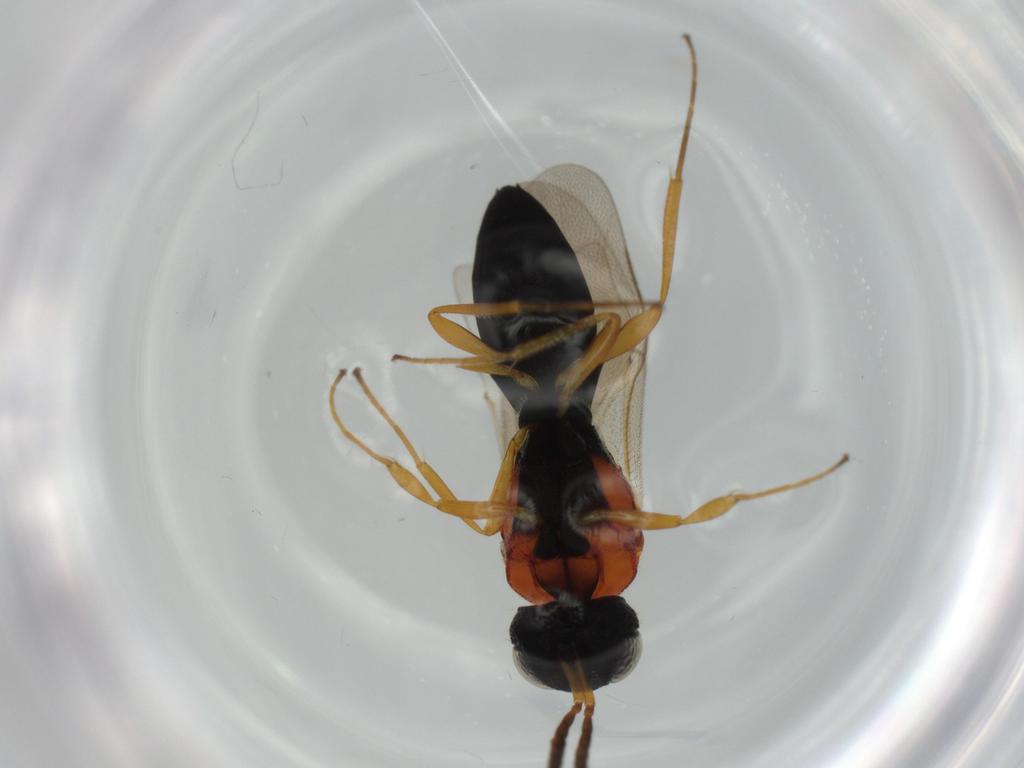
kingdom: Animalia
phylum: Arthropoda
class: Insecta
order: Hymenoptera
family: Scelionidae
